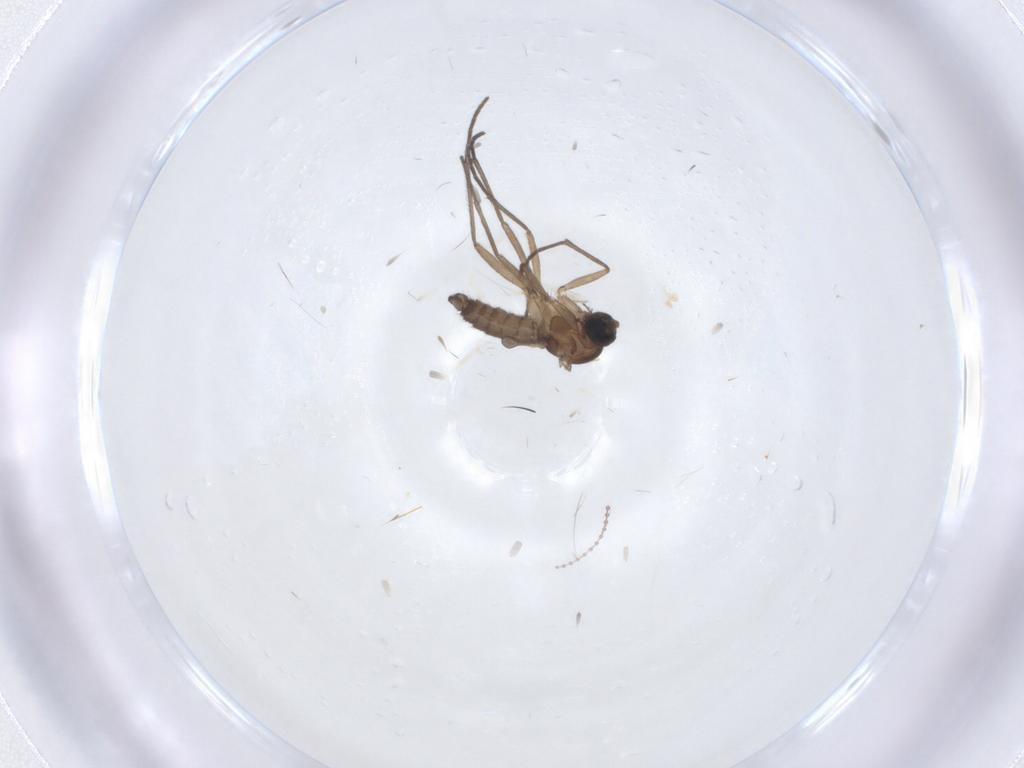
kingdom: Animalia
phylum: Arthropoda
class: Insecta
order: Diptera
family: Sciaridae
